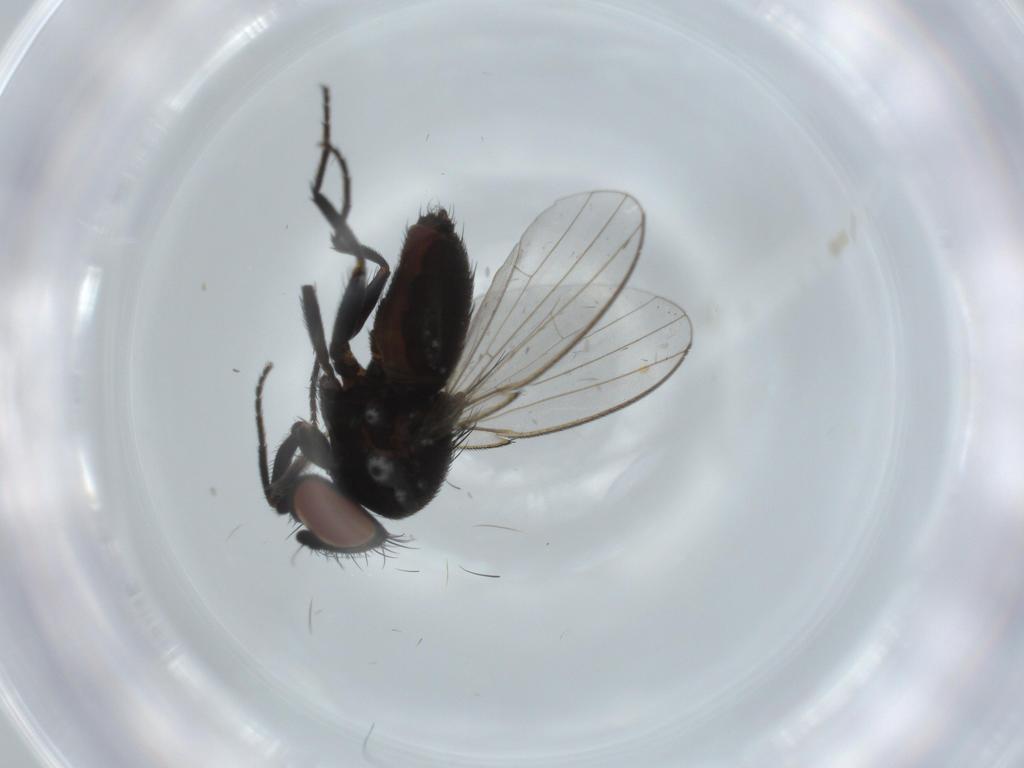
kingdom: Animalia
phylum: Arthropoda
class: Insecta
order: Diptera
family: Milichiidae
